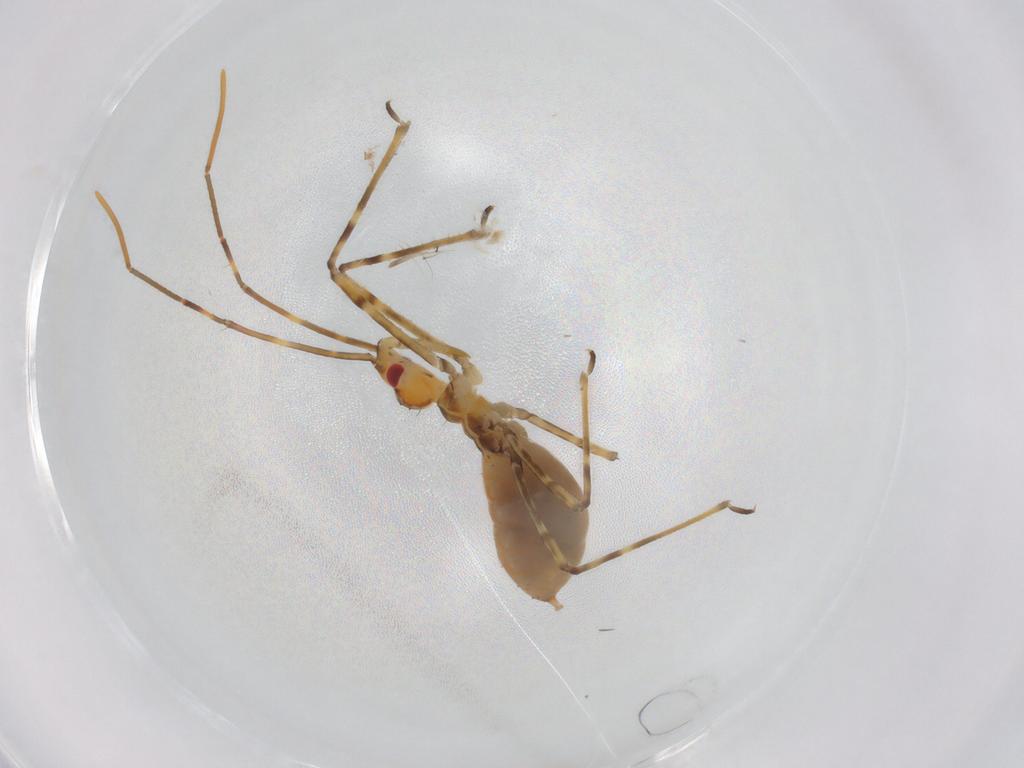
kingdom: Animalia
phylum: Arthropoda
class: Insecta
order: Hemiptera
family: Reduviidae
